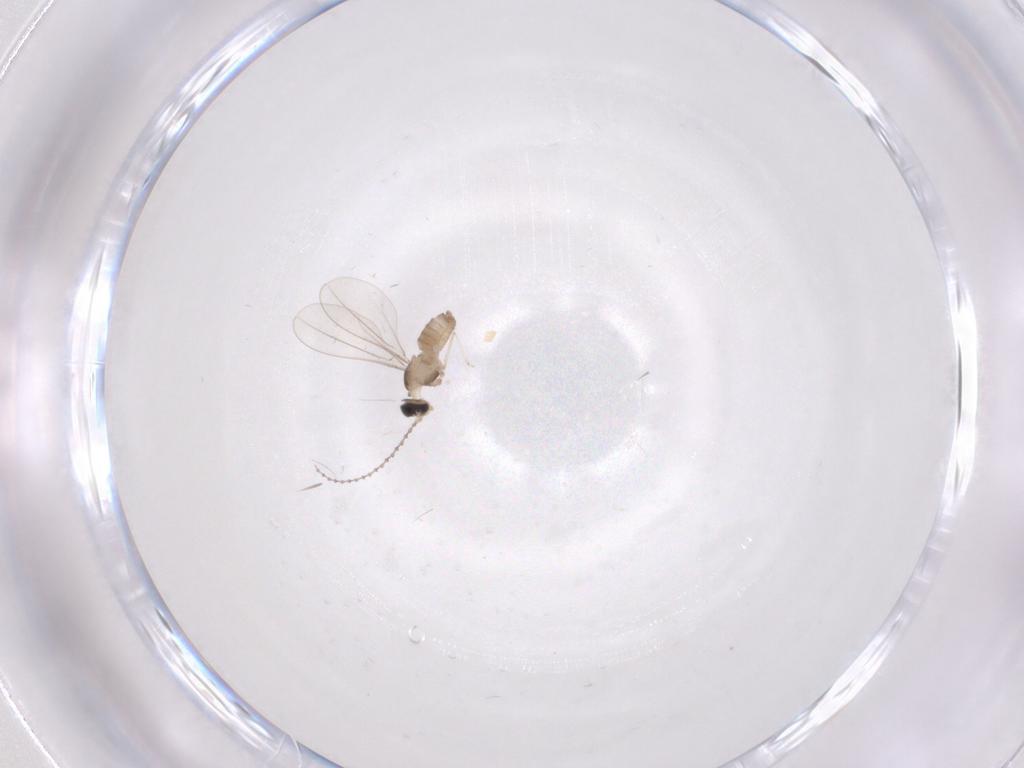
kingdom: Animalia
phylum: Arthropoda
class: Insecta
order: Diptera
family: Cecidomyiidae
